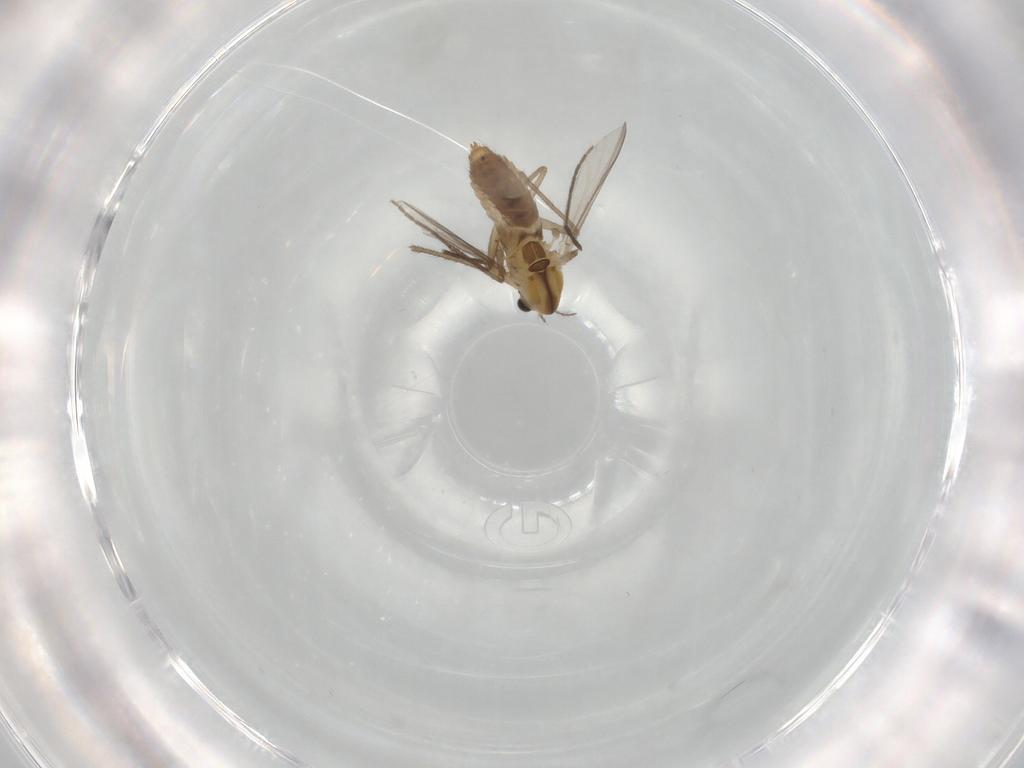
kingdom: Animalia
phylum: Arthropoda
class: Insecta
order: Diptera
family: Chironomidae
